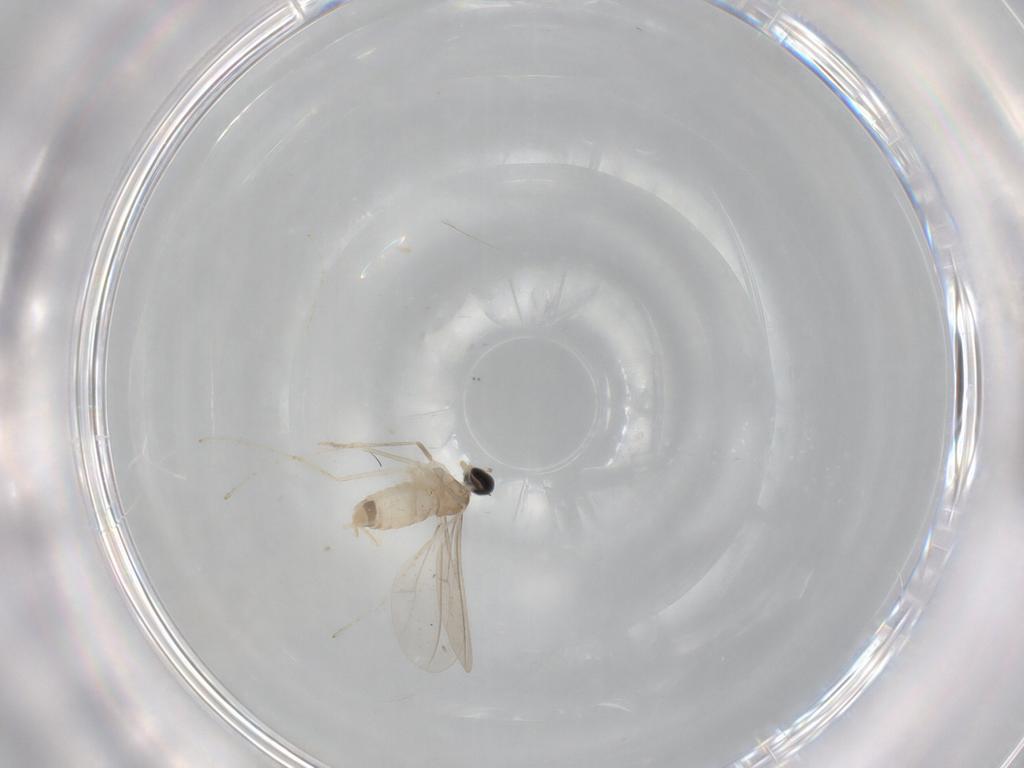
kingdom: Animalia
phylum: Arthropoda
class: Insecta
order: Diptera
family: Cecidomyiidae
